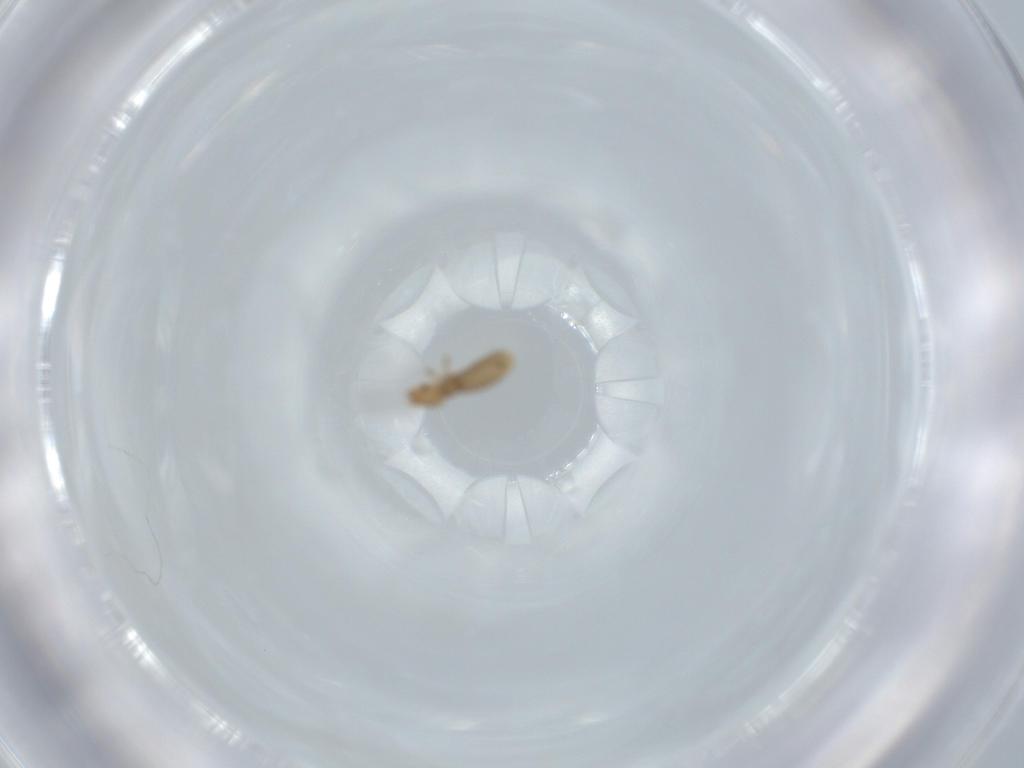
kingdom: Animalia
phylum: Arthropoda
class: Insecta
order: Psocodea
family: Liposcelididae
